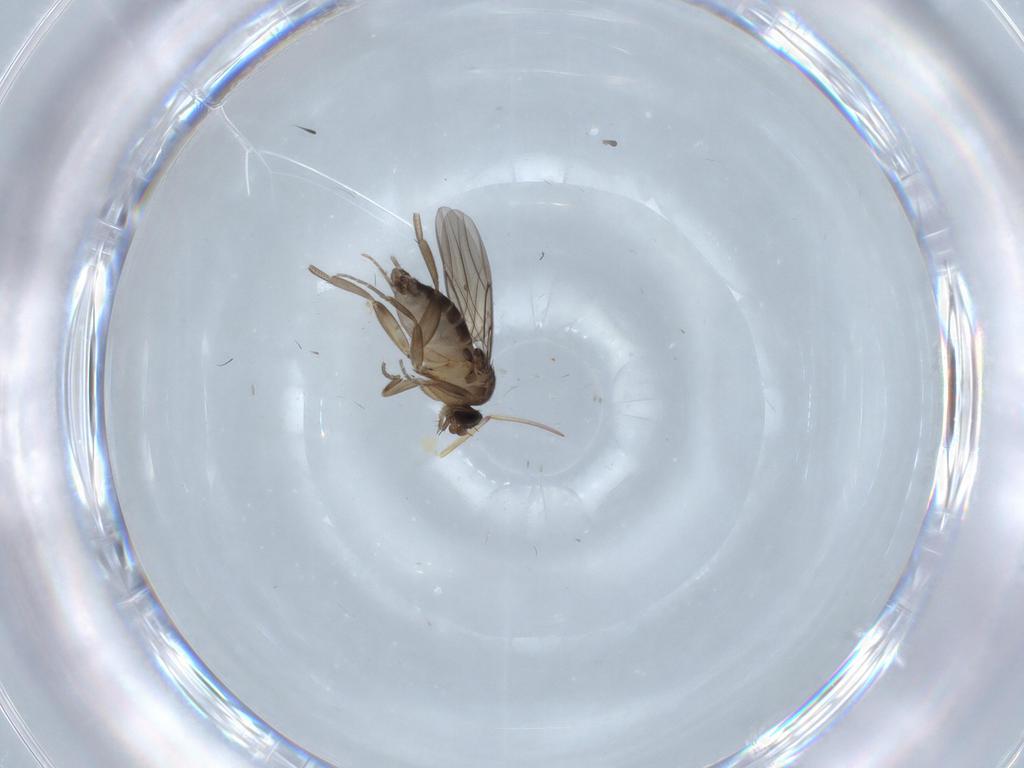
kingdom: Animalia
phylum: Arthropoda
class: Insecta
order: Diptera
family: Phoridae
